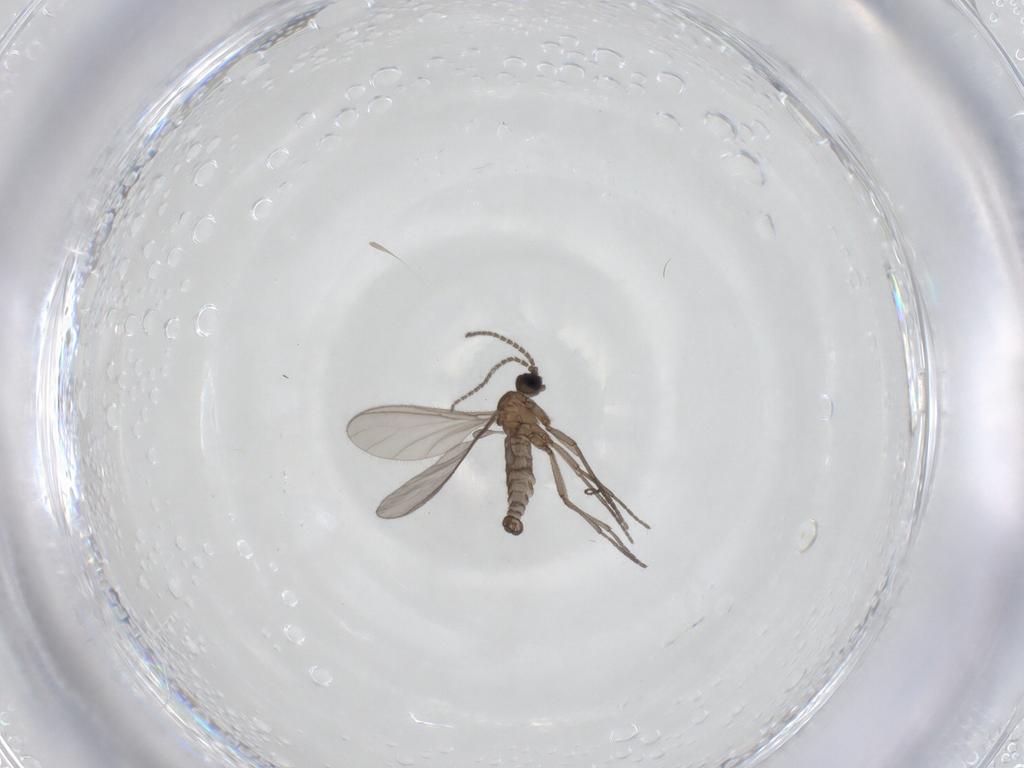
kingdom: Animalia
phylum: Arthropoda
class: Insecta
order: Diptera
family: Sciaridae
